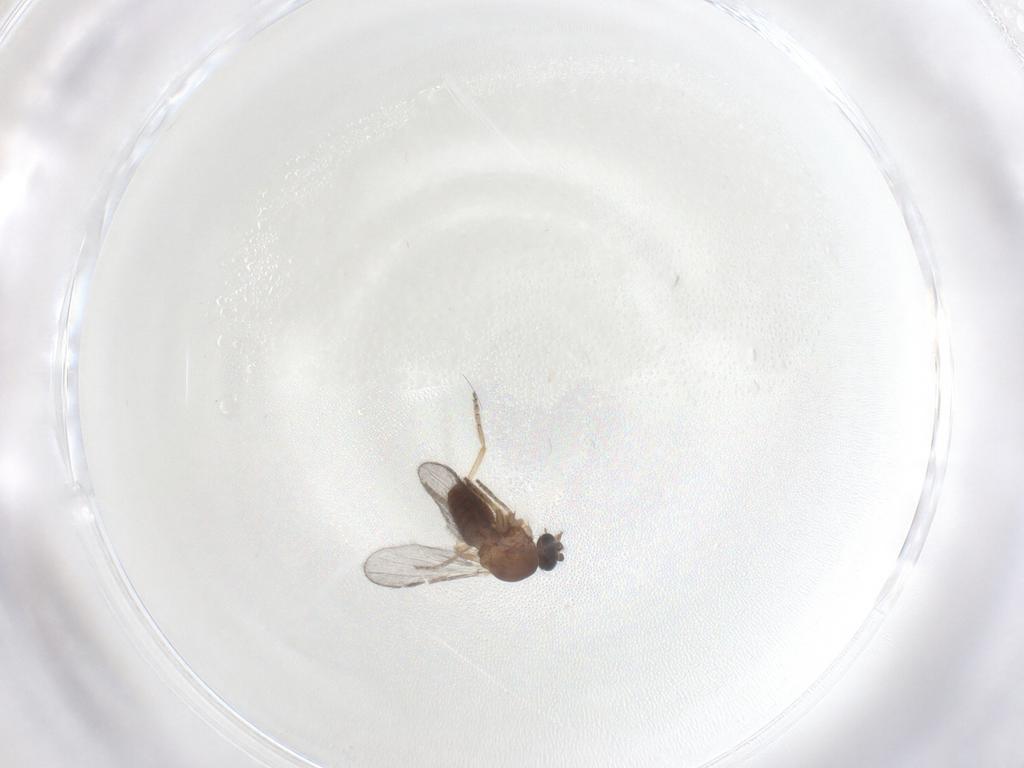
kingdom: Animalia
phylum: Arthropoda
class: Insecta
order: Diptera
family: Ceratopogonidae
